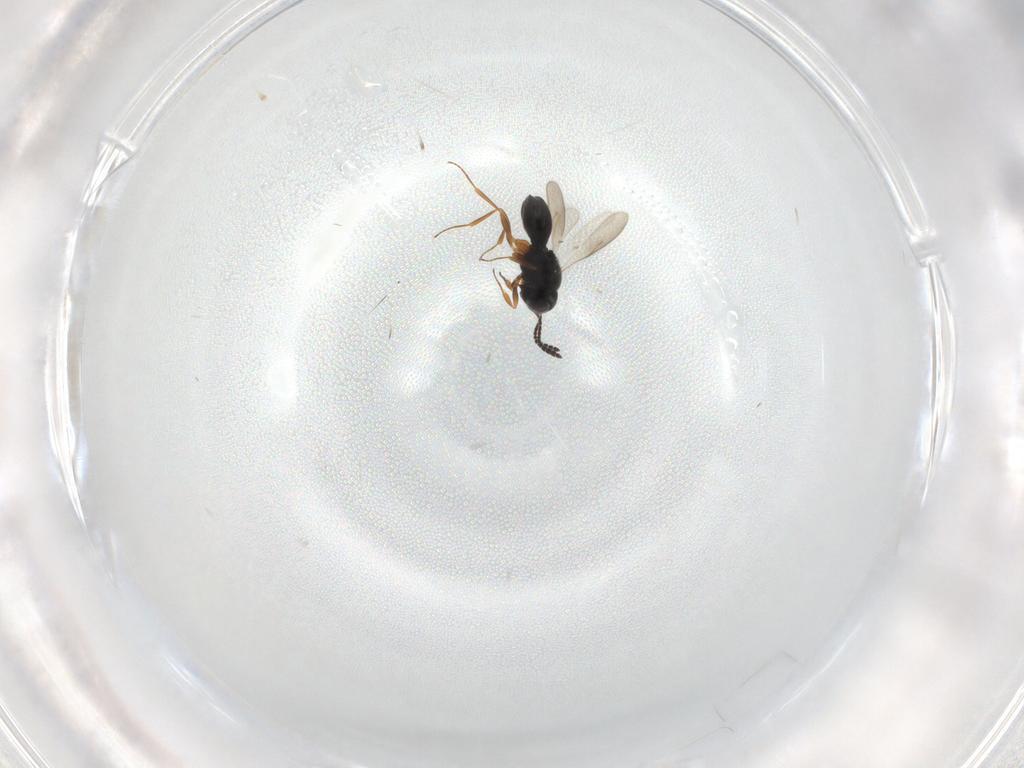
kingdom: Animalia
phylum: Arthropoda
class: Insecta
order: Hymenoptera
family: Scelionidae
